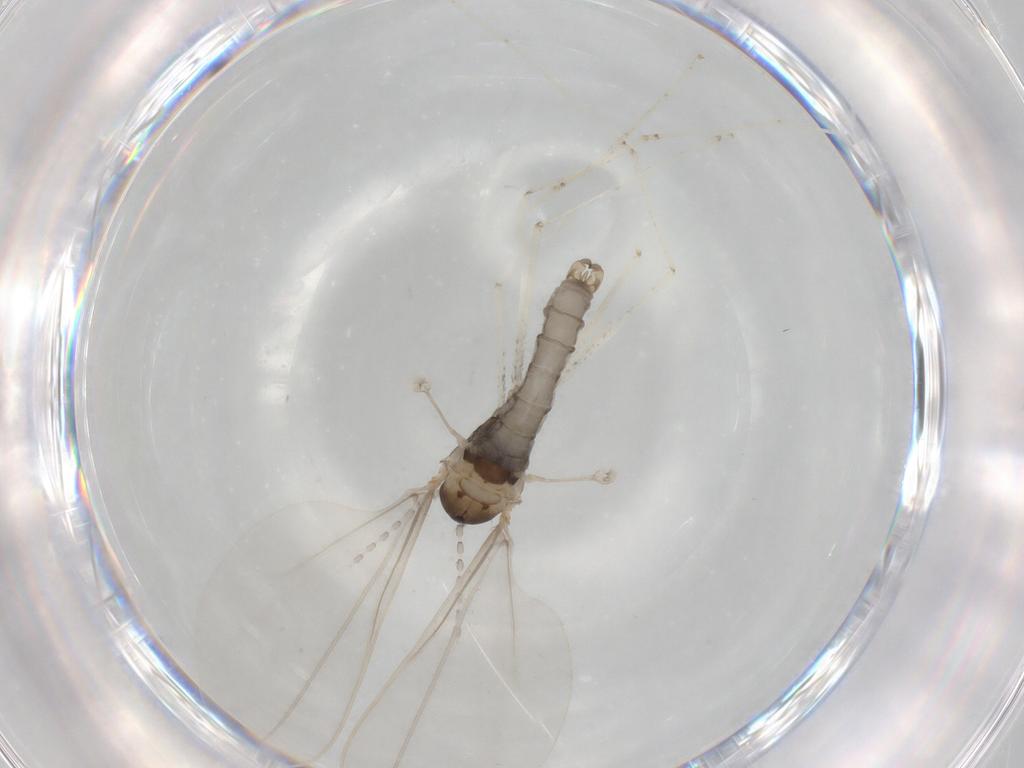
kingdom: Animalia
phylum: Arthropoda
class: Insecta
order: Diptera
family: Cecidomyiidae
